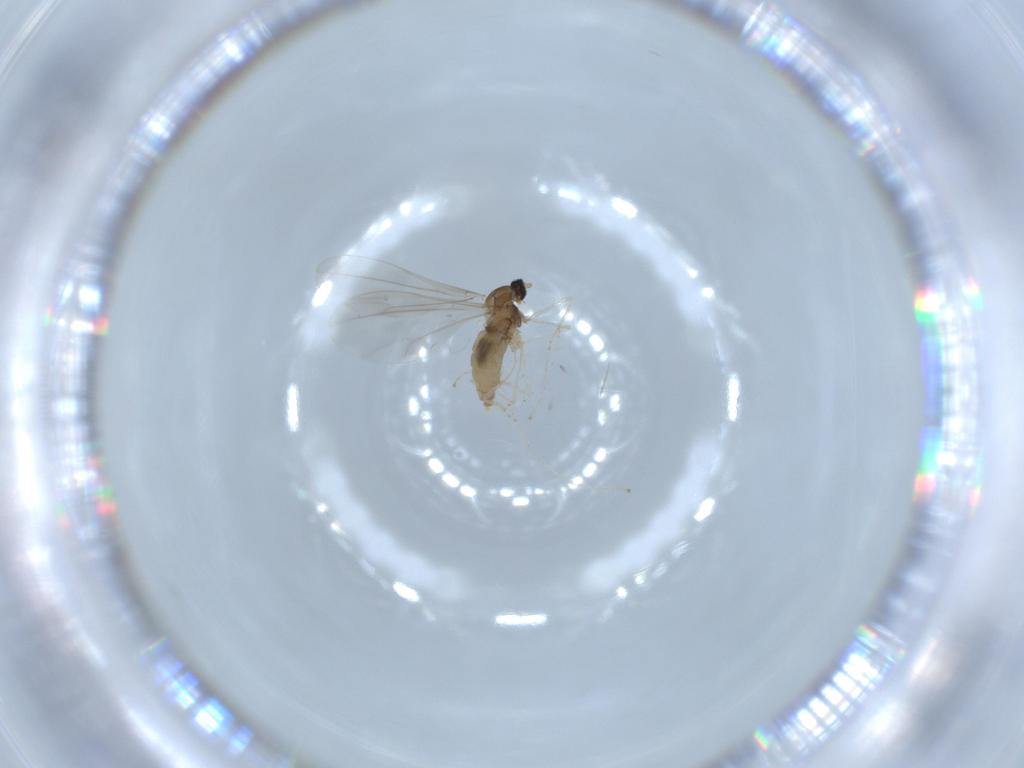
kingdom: Animalia
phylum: Arthropoda
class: Insecta
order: Diptera
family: Cecidomyiidae
